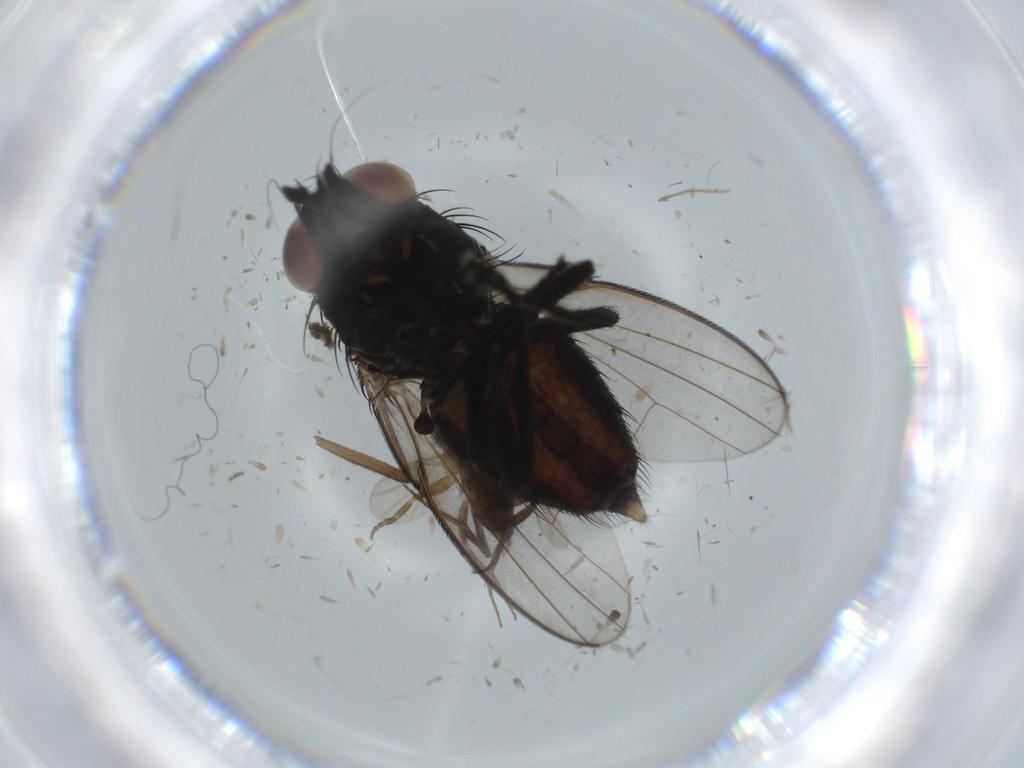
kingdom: Animalia
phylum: Arthropoda
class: Insecta
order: Diptera
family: Milichiidae
